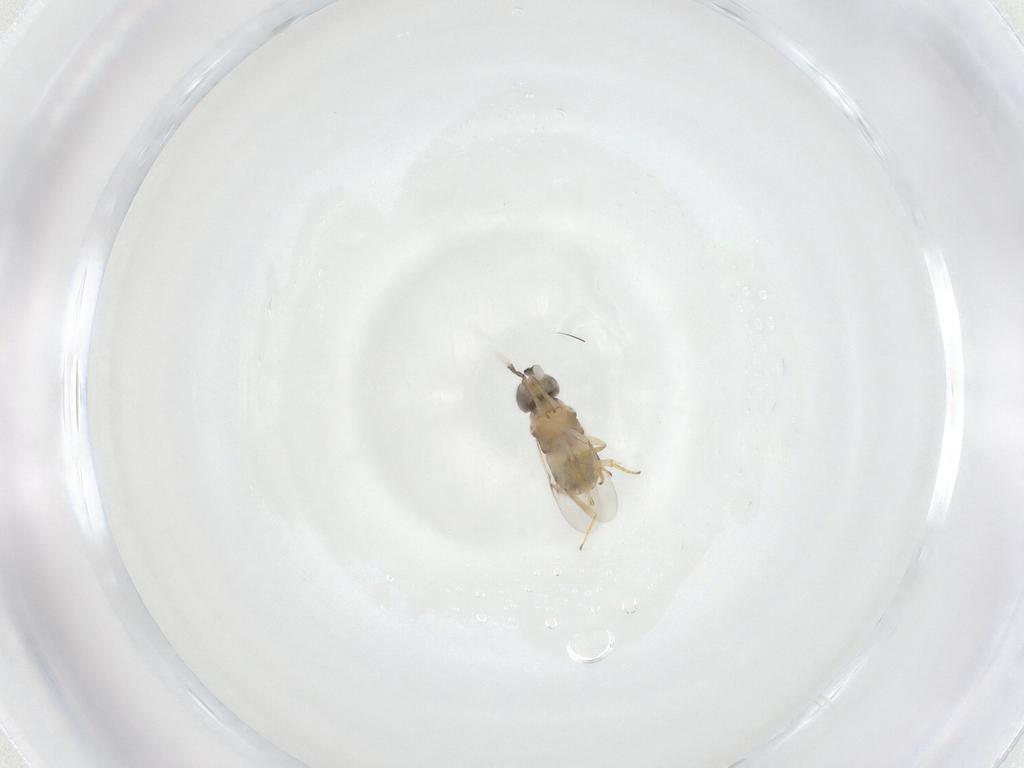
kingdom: Animalia
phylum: Arthropoda
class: Insecta
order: Hymenoptera
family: Encyrtidae
